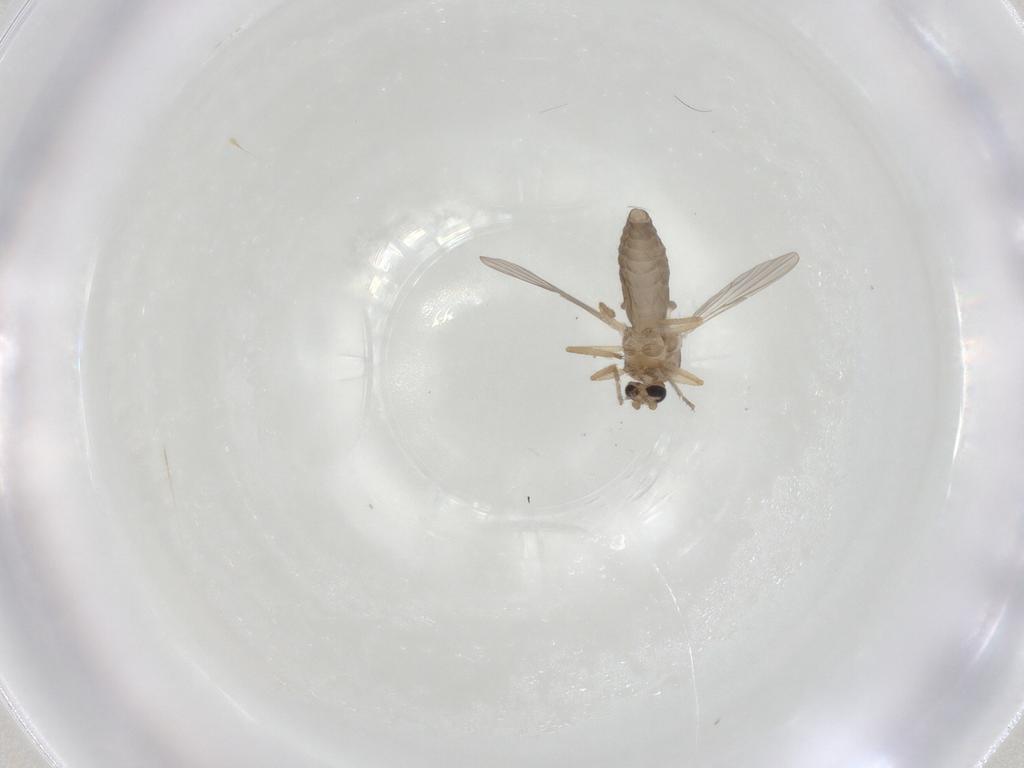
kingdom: Animalia
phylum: Arthropoda
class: Insecta
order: Diptera
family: Ceratopogonidae
